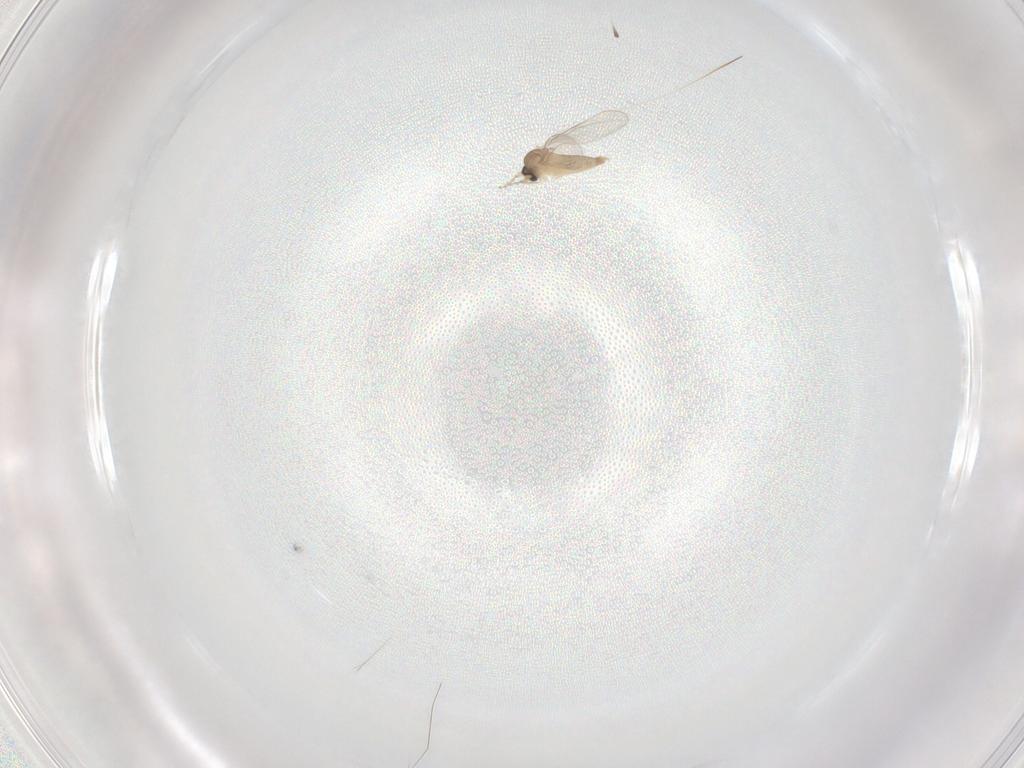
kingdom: Animalia
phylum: Arthropoda
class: Insecta
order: Diptera
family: Cecidomyiidae
